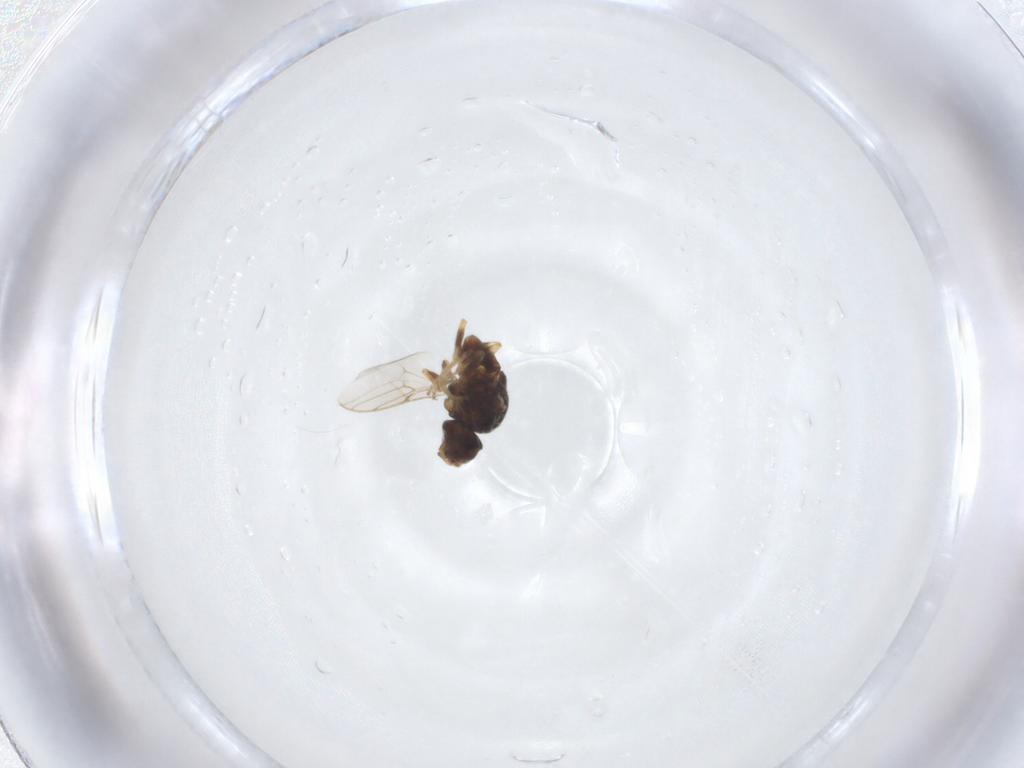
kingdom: Animalia
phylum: Arthropoda
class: Insecta
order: Diptera
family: Chloropidae
